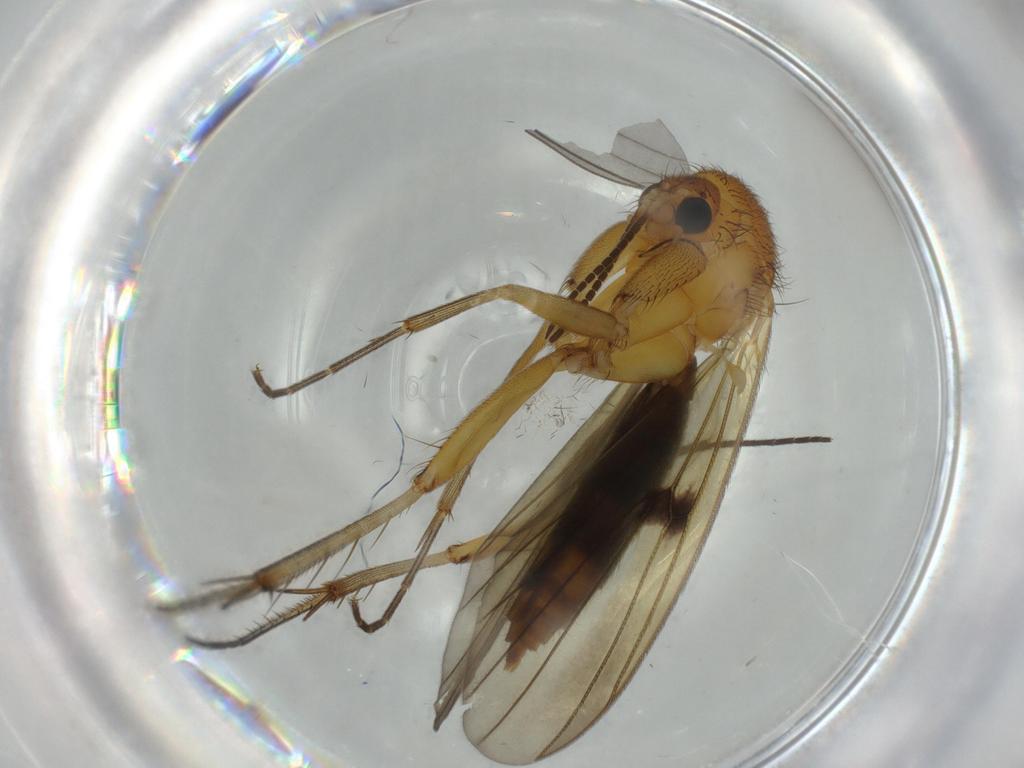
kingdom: Animalia
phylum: Arthropoda
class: Insecta
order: Diptera
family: Mycetophilidae
